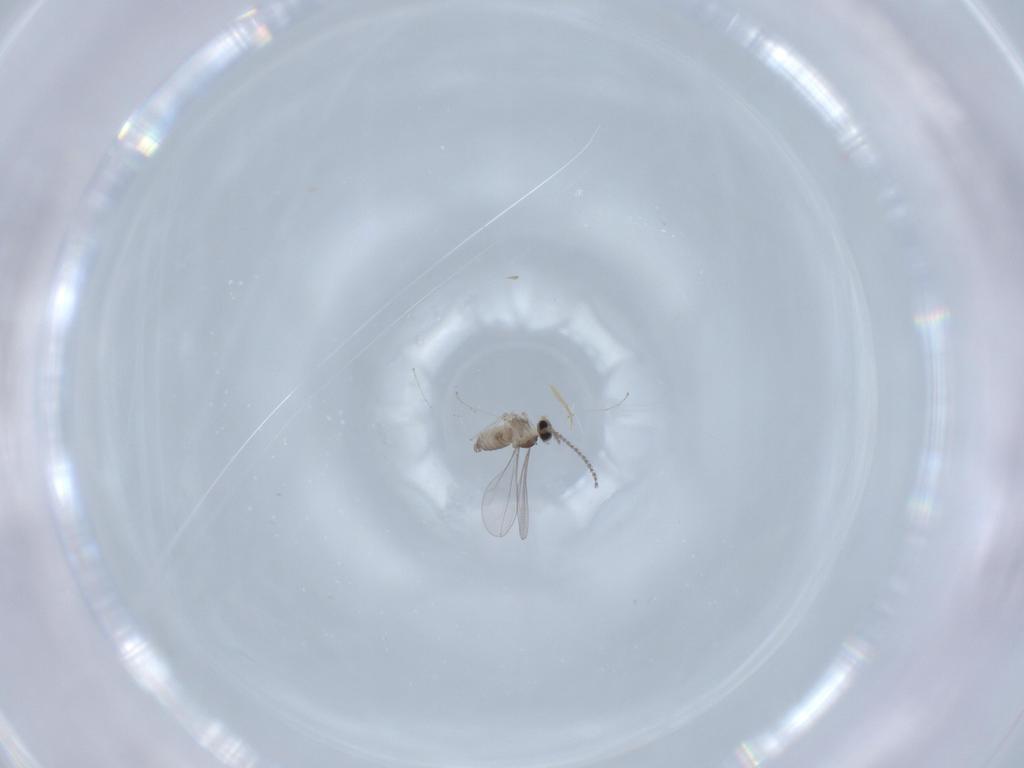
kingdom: Animalia
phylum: Arthropoda
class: Insecta
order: Diptera
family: Cecidomyiidae
